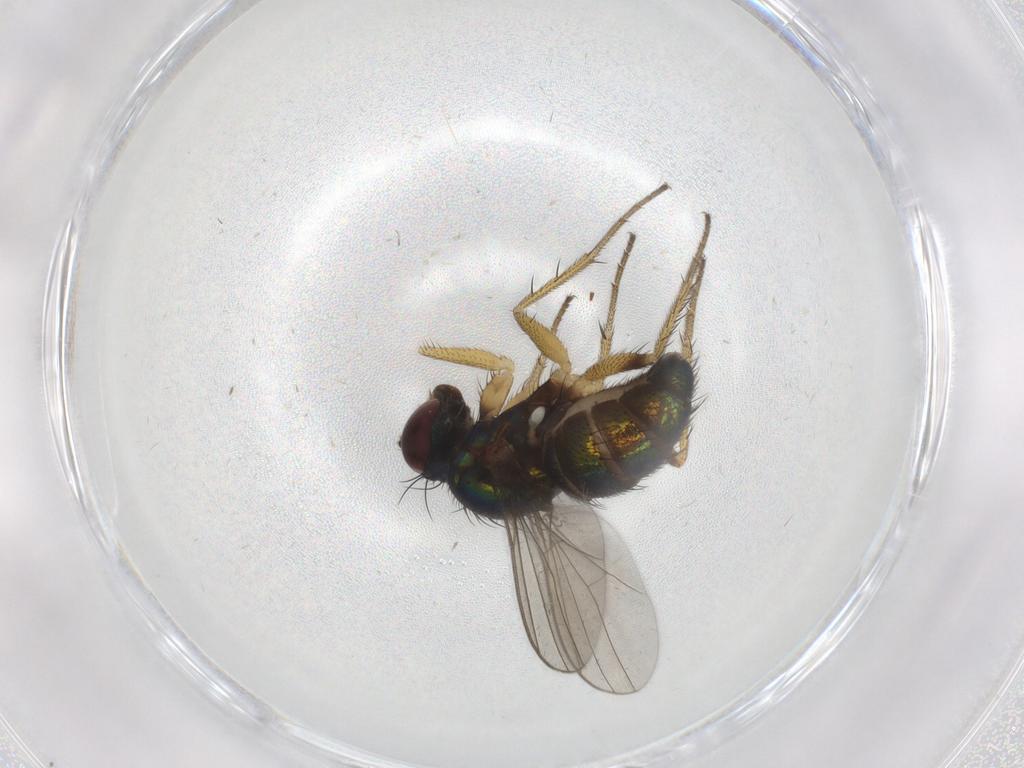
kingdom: Animalia
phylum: Arthropoda
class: Insecta
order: Diptera
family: Dolichopodidae
